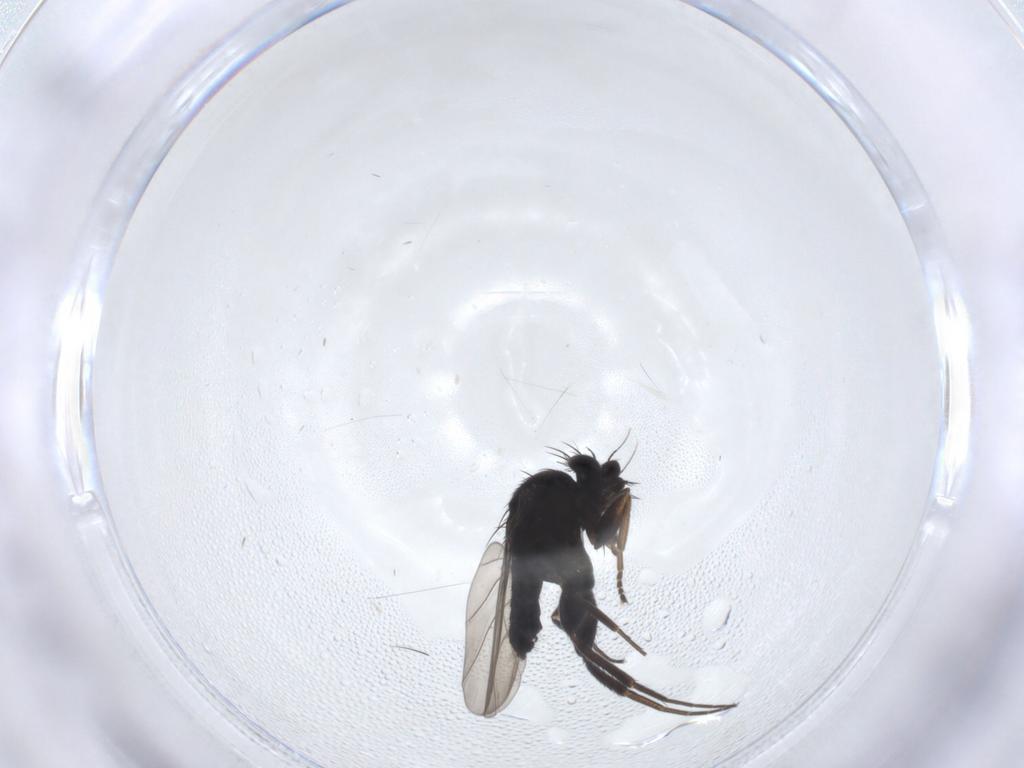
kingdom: Animalia
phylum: Arthropoda
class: Insecta
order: Diptera
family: Phoridae
